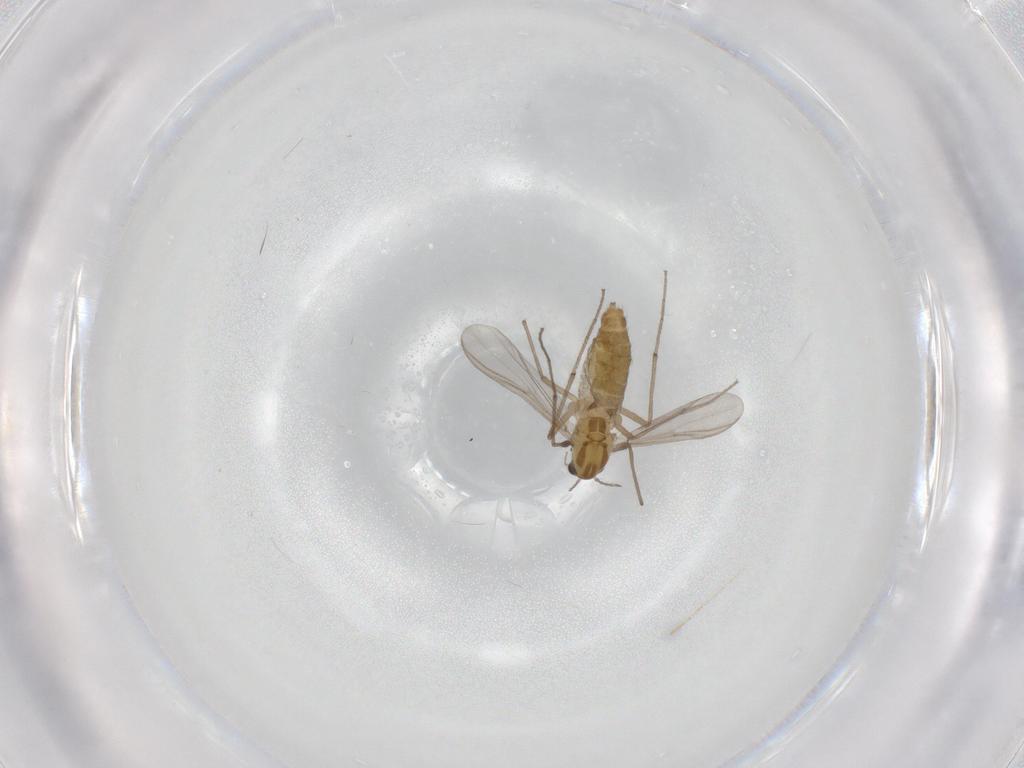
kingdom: Animalia
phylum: Arthropoda
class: Insecta
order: Diptera
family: Chironomidae
